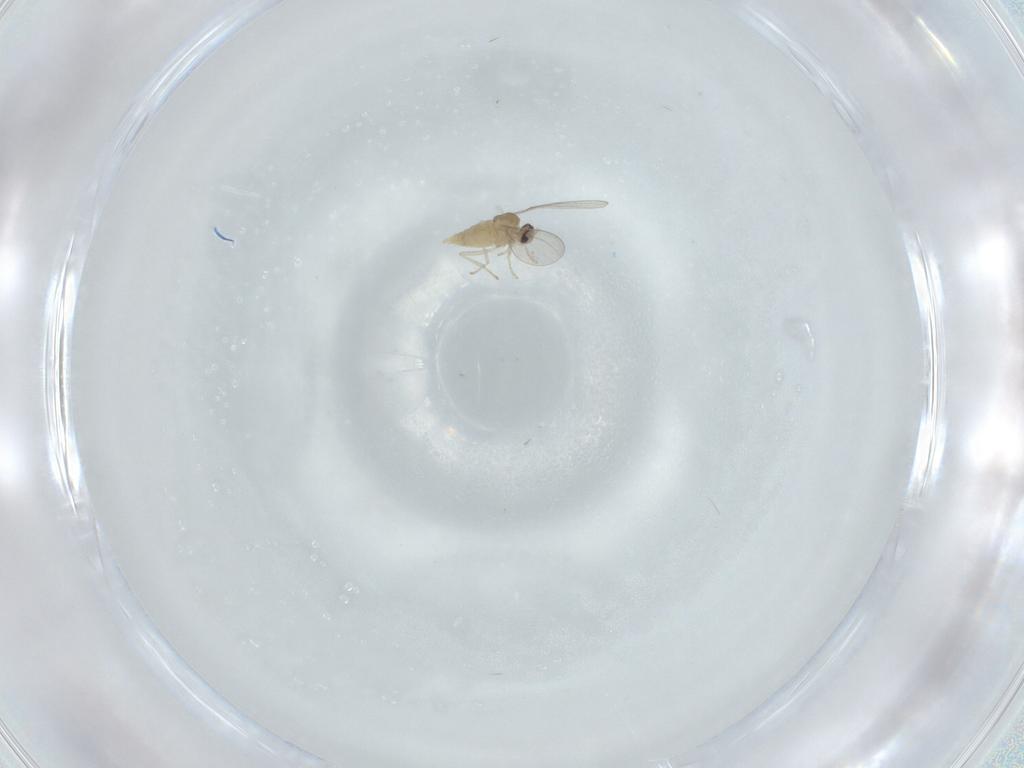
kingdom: Animalia
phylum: Arthropoda
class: Insecta
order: Diptera
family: Cecidomyiidae
